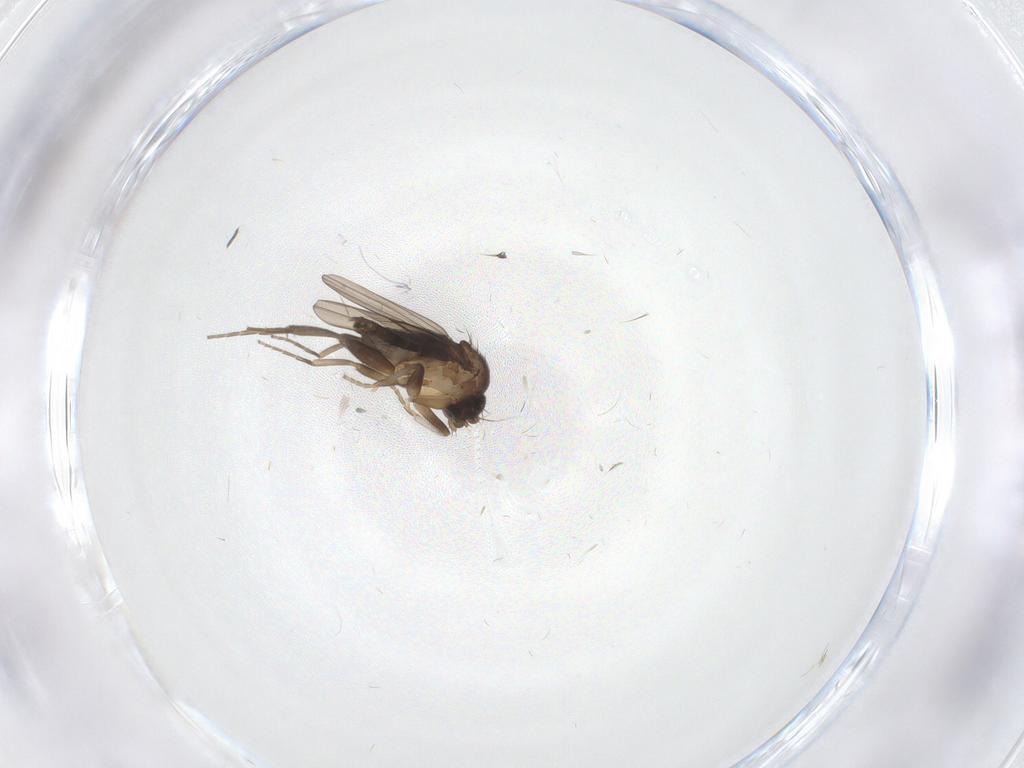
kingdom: Animalia
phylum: Arthropoda
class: Insecta
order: Diptera
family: Phoridae
